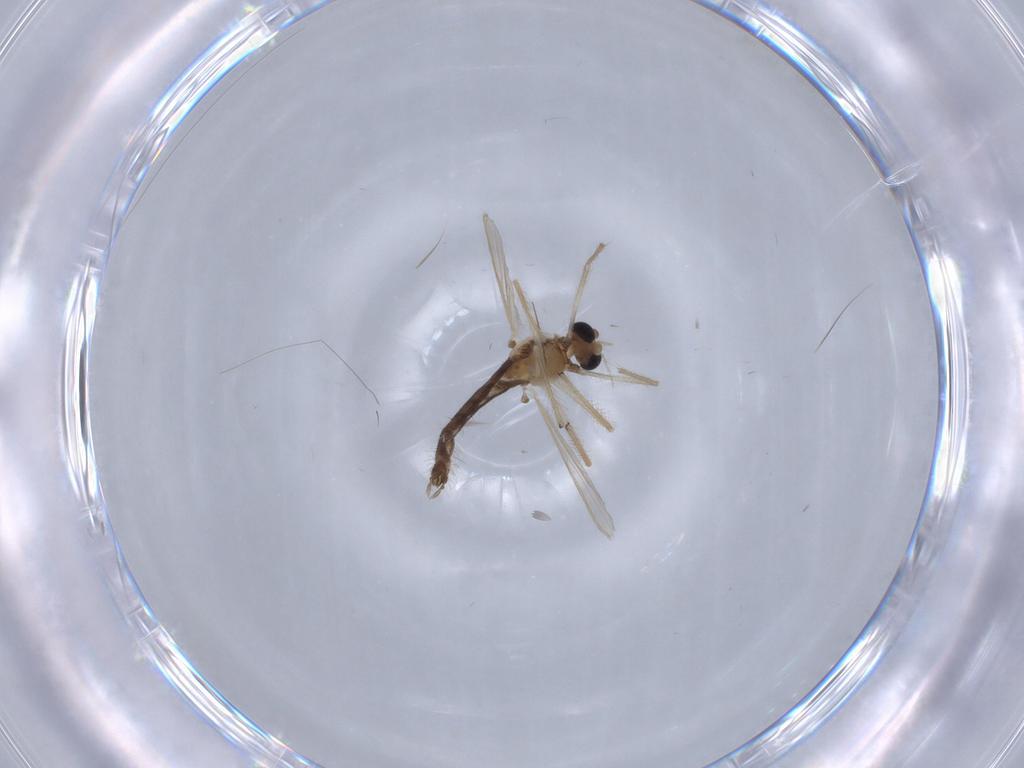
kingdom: Animalia
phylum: Arthropoda
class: Insecta
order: Diptera
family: Chironomidae
